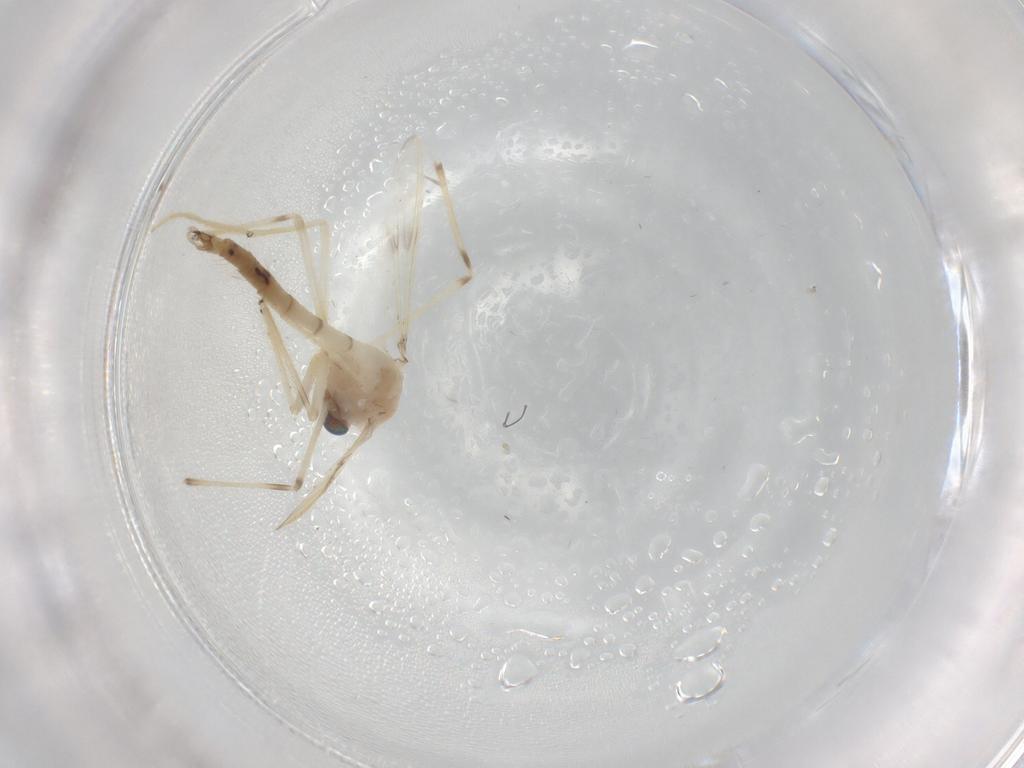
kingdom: Animalia
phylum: Arthropoda
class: Insecta
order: Diptera
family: Chironomidae
